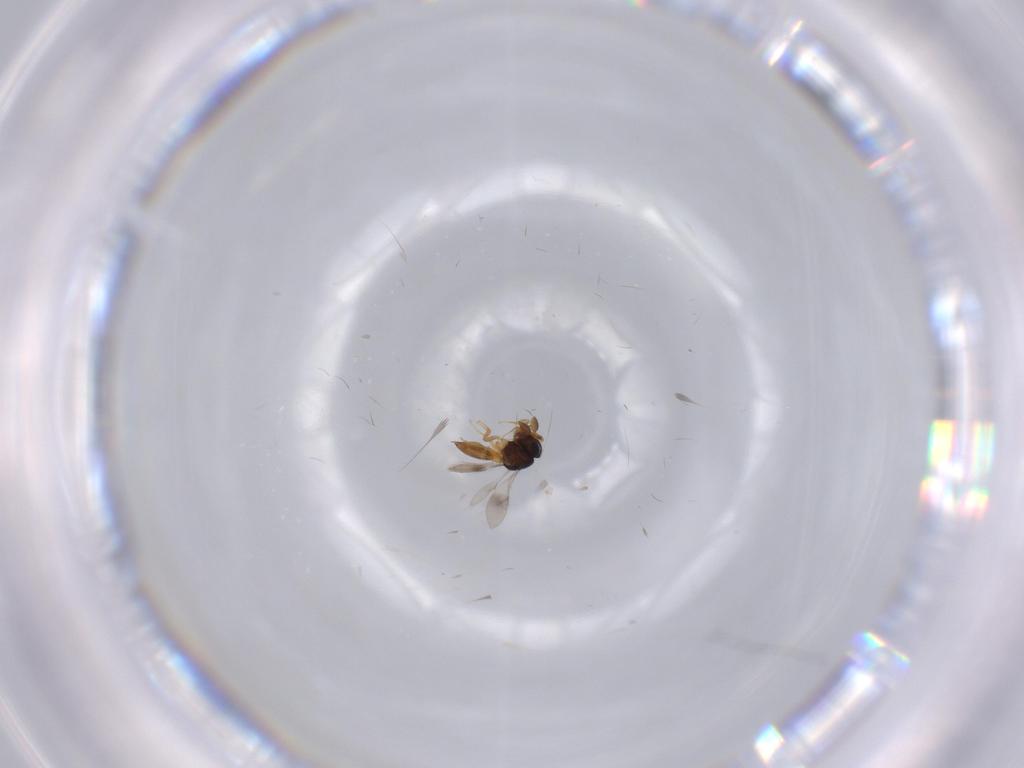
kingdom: Animalia
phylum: Arthropoda
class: Insecta
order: Hymenoptera
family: Scelionidae
